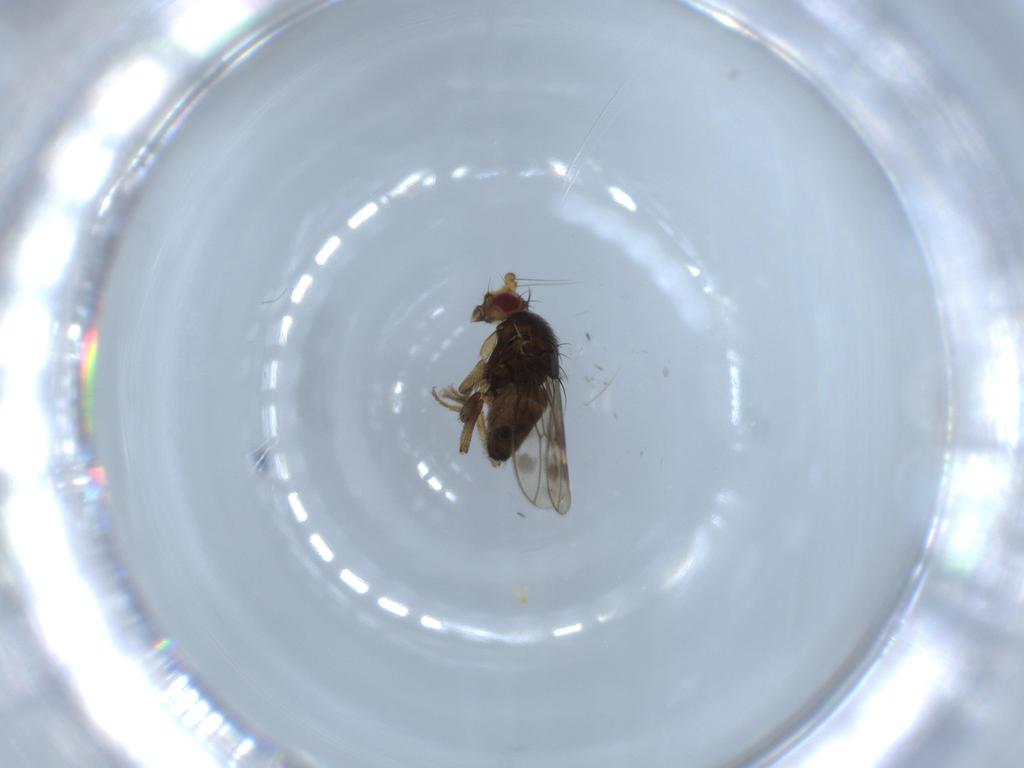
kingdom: Animalia
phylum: Arthropoda
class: Insecta
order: Diptera
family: Sphaeroceridae
